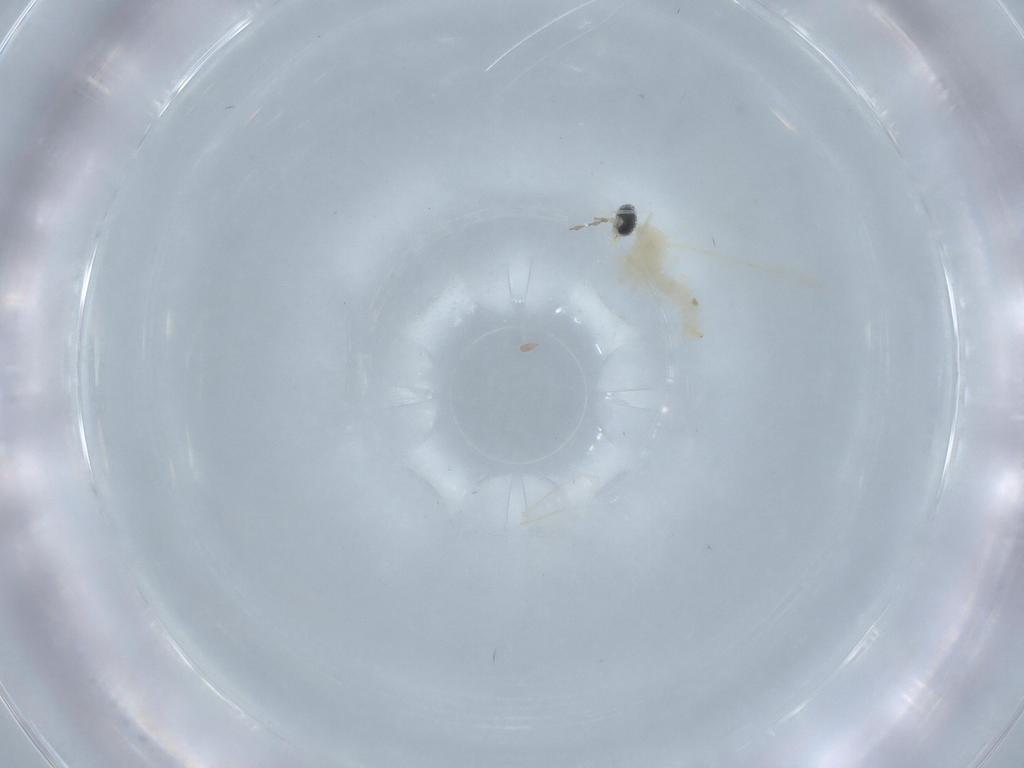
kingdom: Animalia
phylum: Arthropoda
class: Insecta
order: Diptera
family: Cecidomyiidae
